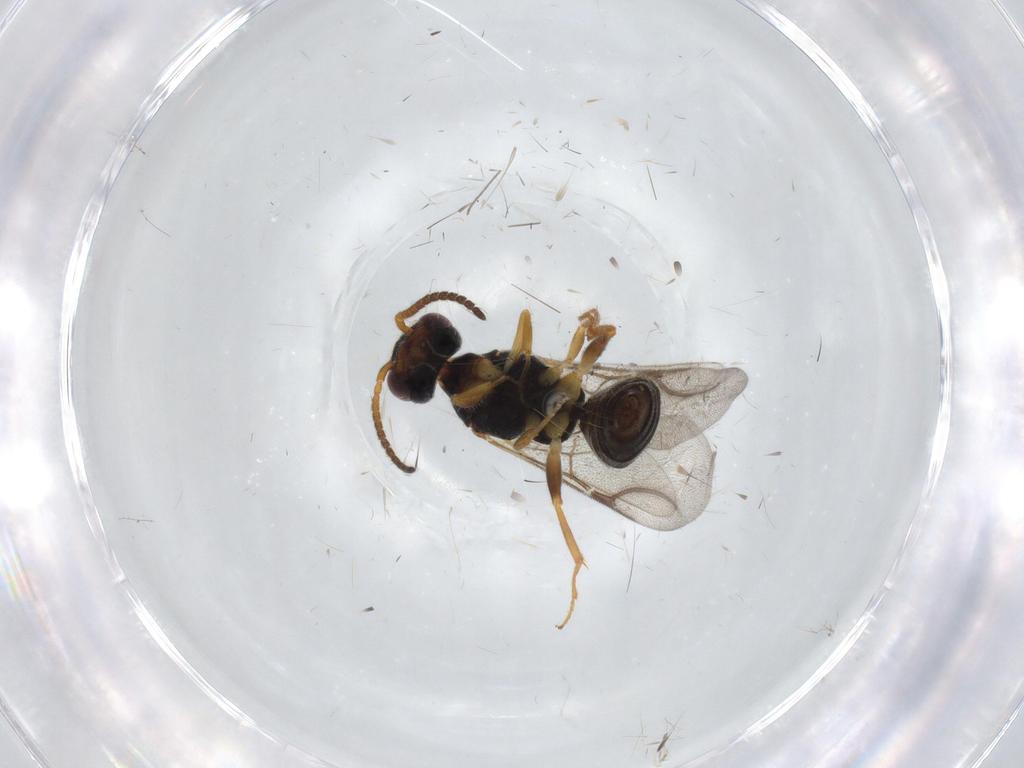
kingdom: Animalia
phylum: Arthropoda
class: Insecta
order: Hymenoptera
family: Bethylidae
